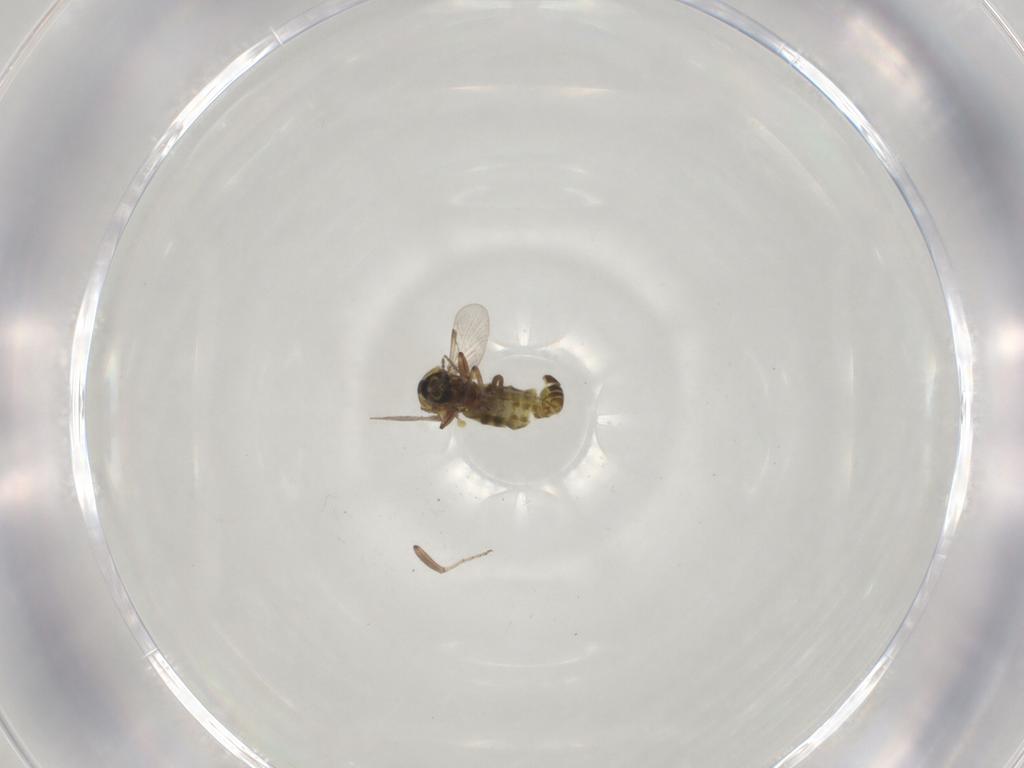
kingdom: Animalia
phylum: Arthropoda
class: Insecta
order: Diptera
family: Ceratopogonidae
